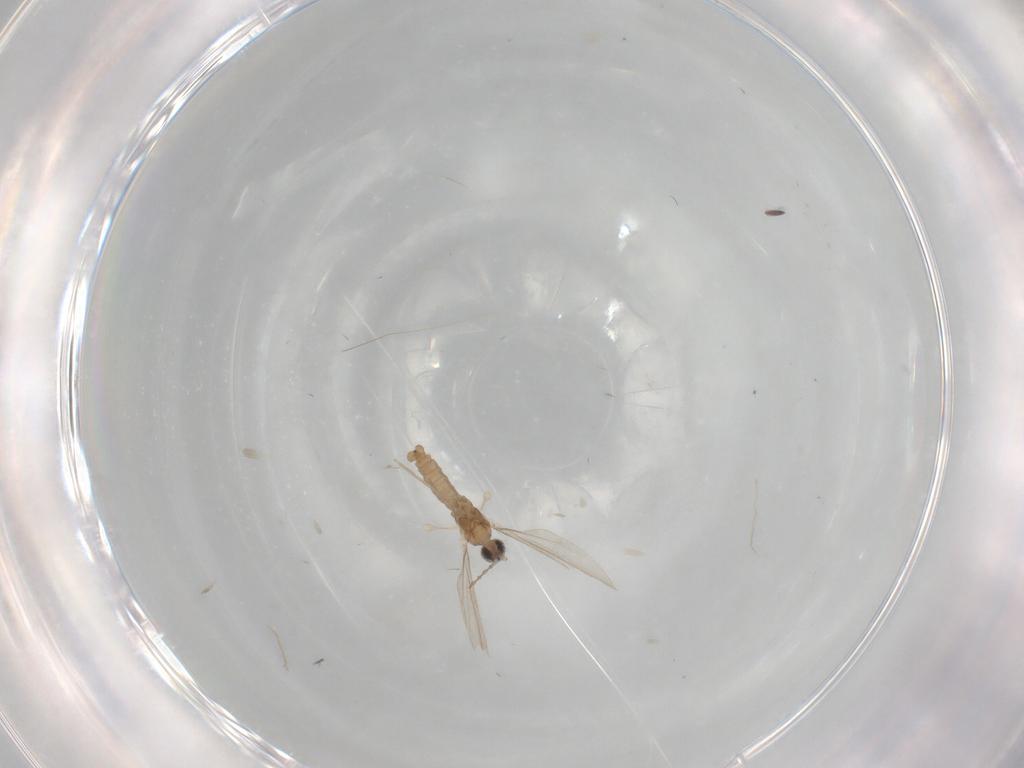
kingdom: Animalia
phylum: Arthropoda
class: Insecta
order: Diptera
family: Cecidomyiidae
